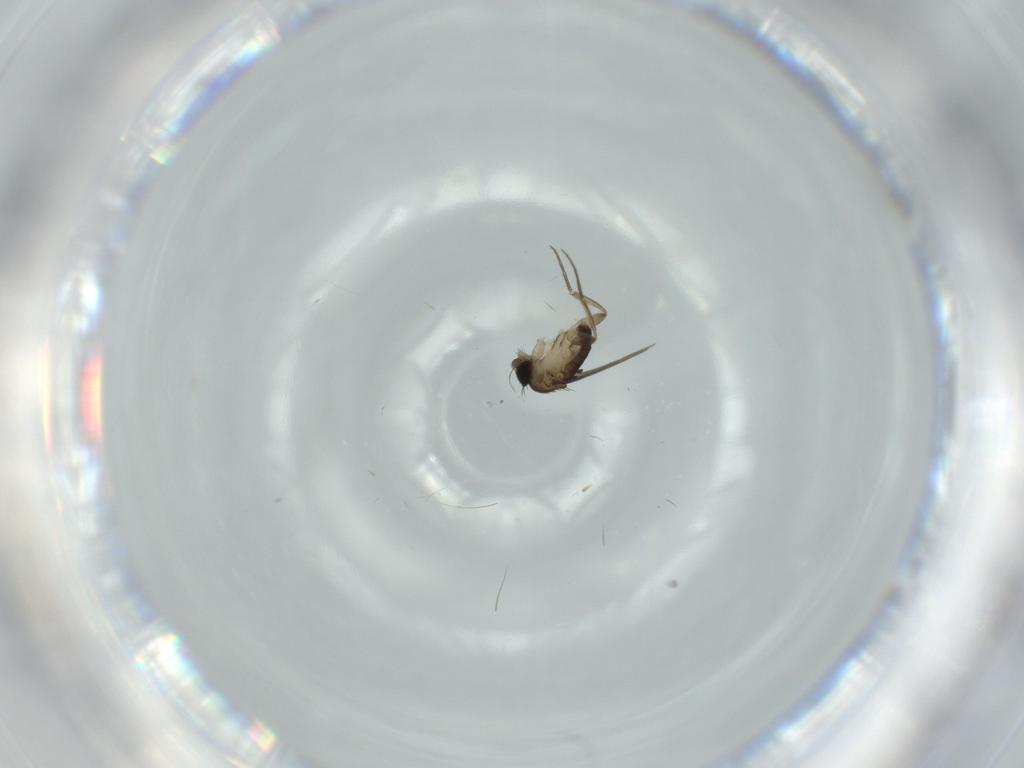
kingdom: Animalia
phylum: Arthropoda
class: Insecta
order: Diptera
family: Phoridae
